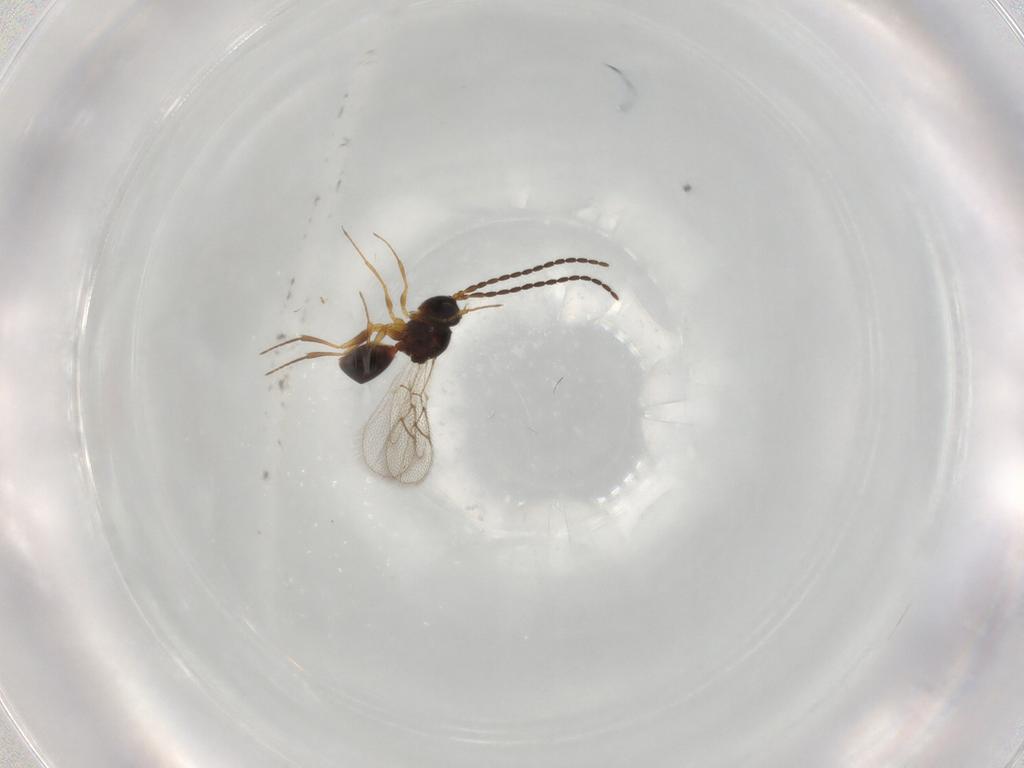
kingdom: Animalia
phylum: Arthropoda
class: Insecta
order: Hymenoptera
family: Figitidae
